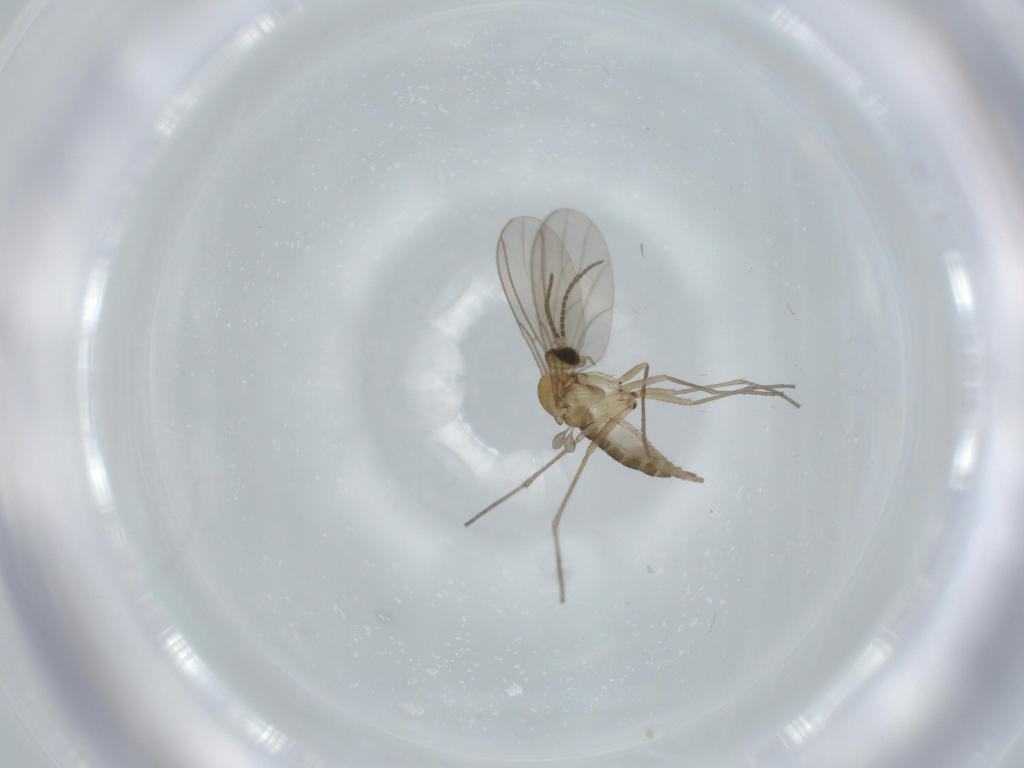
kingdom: Animalia
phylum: Arthropoda
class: Insecta
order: Diptera
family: Sciaridae
